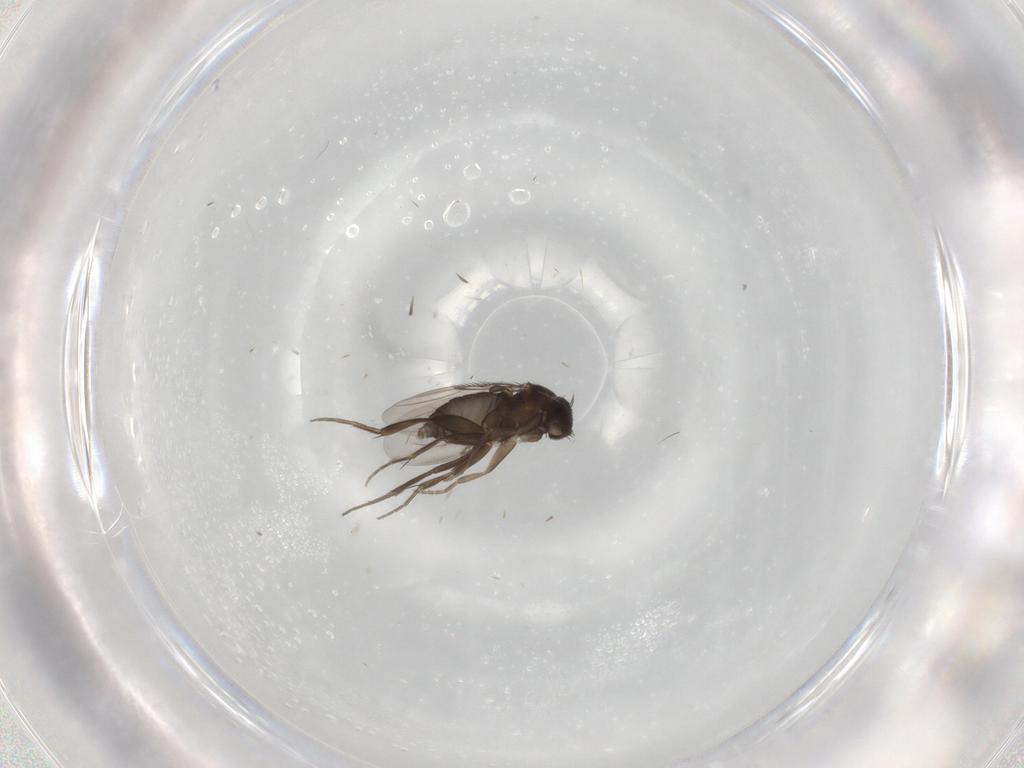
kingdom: Animalia
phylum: Arthropoda
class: Insecta
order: Diptera
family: Phoridae
